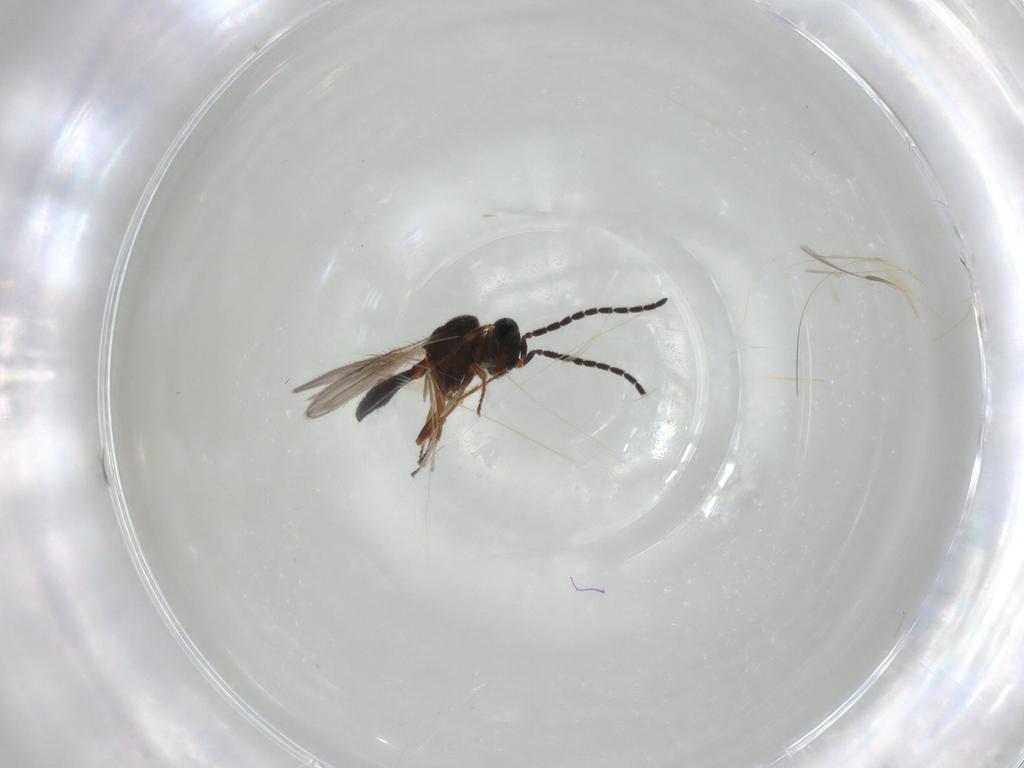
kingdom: Animalia
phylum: Arthropoda
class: Insecta
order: Hymenoptera
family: Scelionidae
